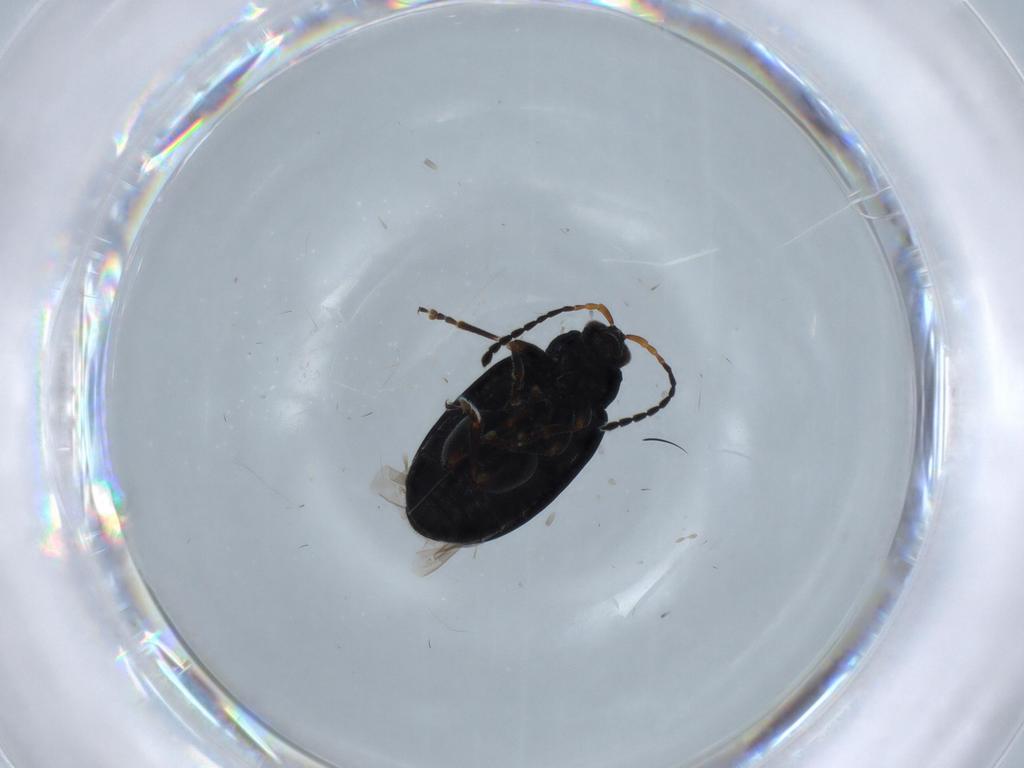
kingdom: Animalia
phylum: Arthropoda
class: Insecta
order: Coleoptera
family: Chrysomelidae
